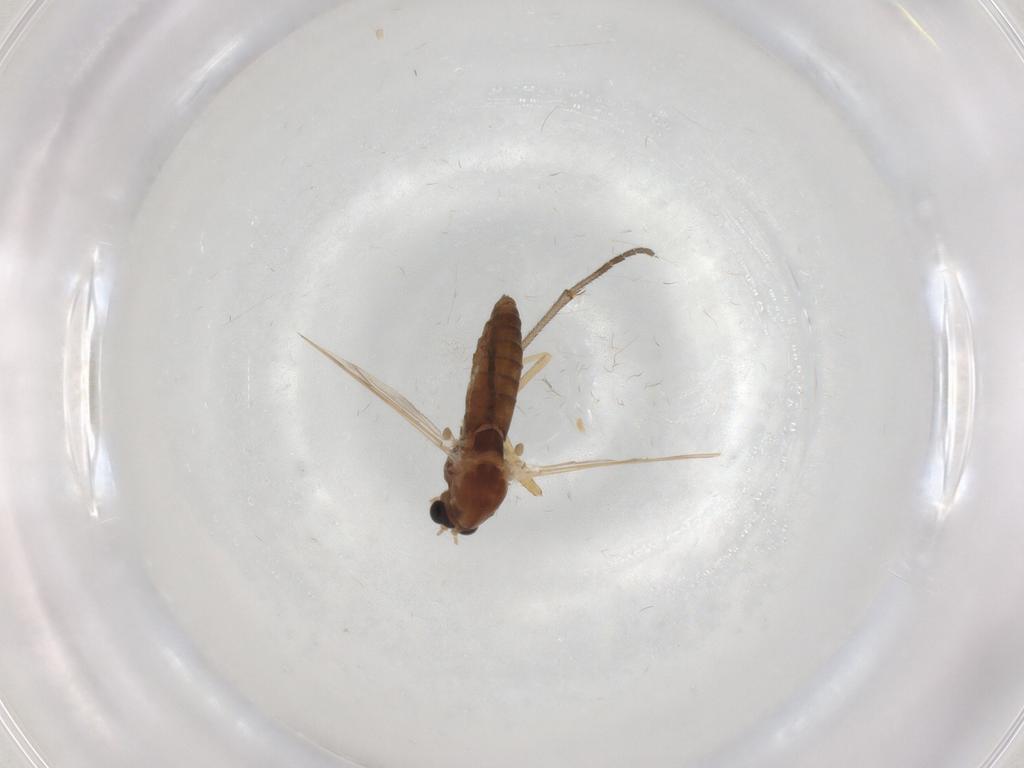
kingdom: Animalia
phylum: Arthropoda
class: Insecta
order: Diptera
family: Chironomidae
